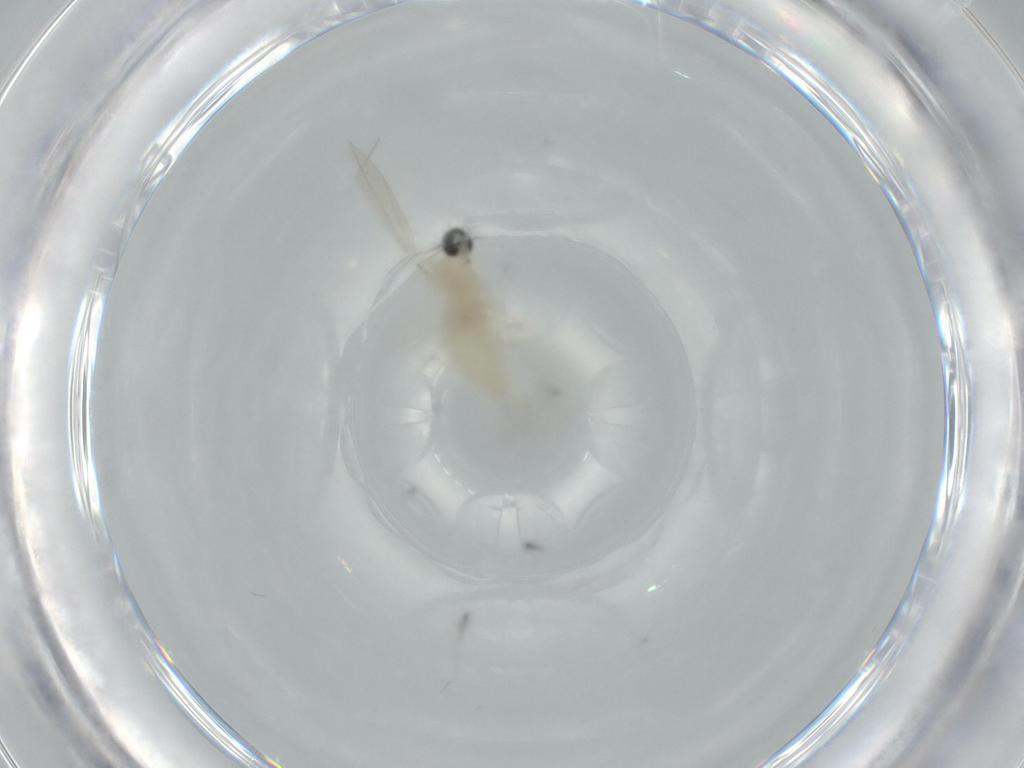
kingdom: Animalia
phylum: Arthropoda
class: Insecta
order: Diptera
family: Cecidomyiidae
